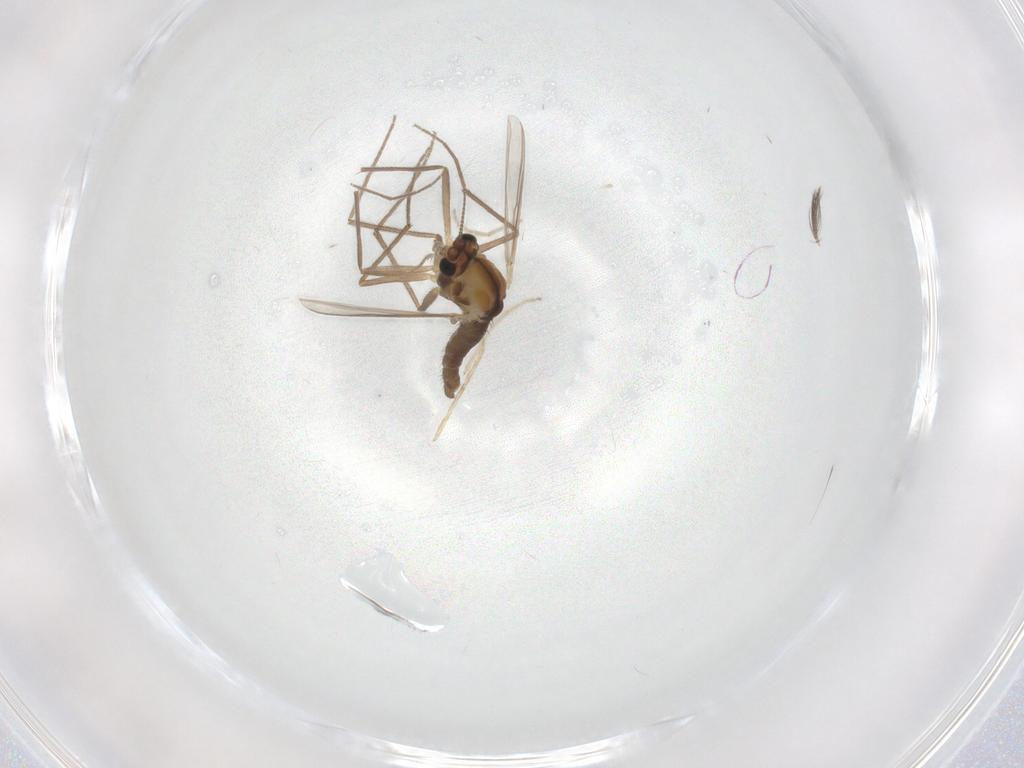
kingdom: Animalia
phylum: Arthropoda
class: Insecta
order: Diptera
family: Chironomidae
